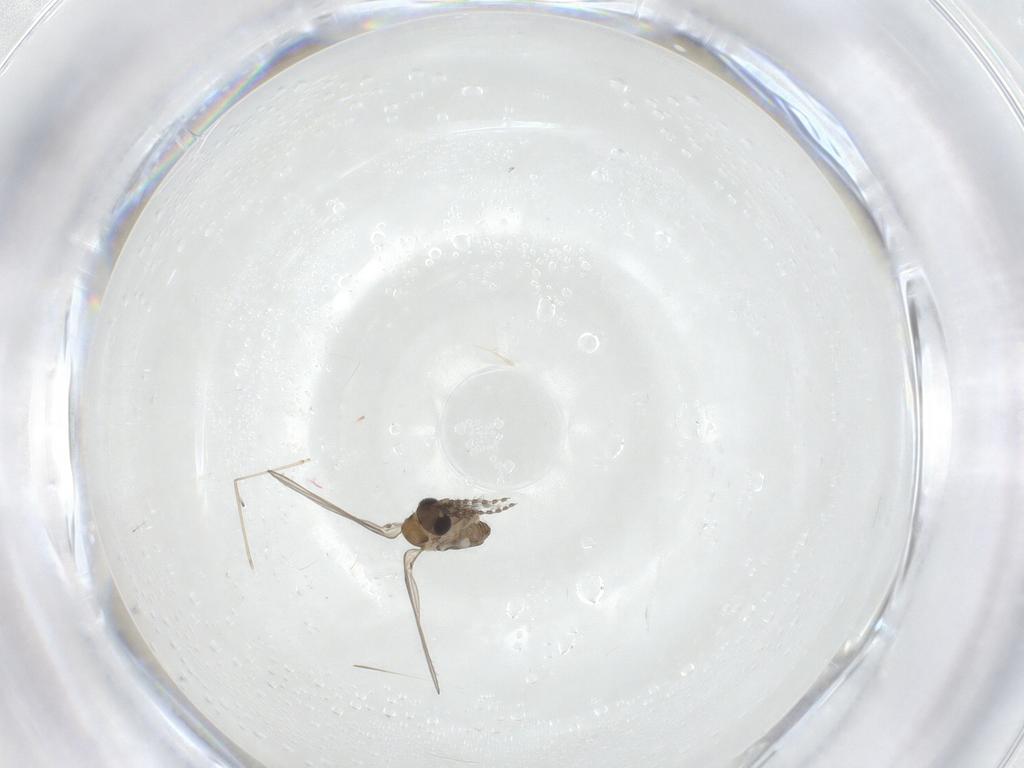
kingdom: Animalia
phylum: Arthropoda
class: Insecta
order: Diptera
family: Cecidomyiidae
